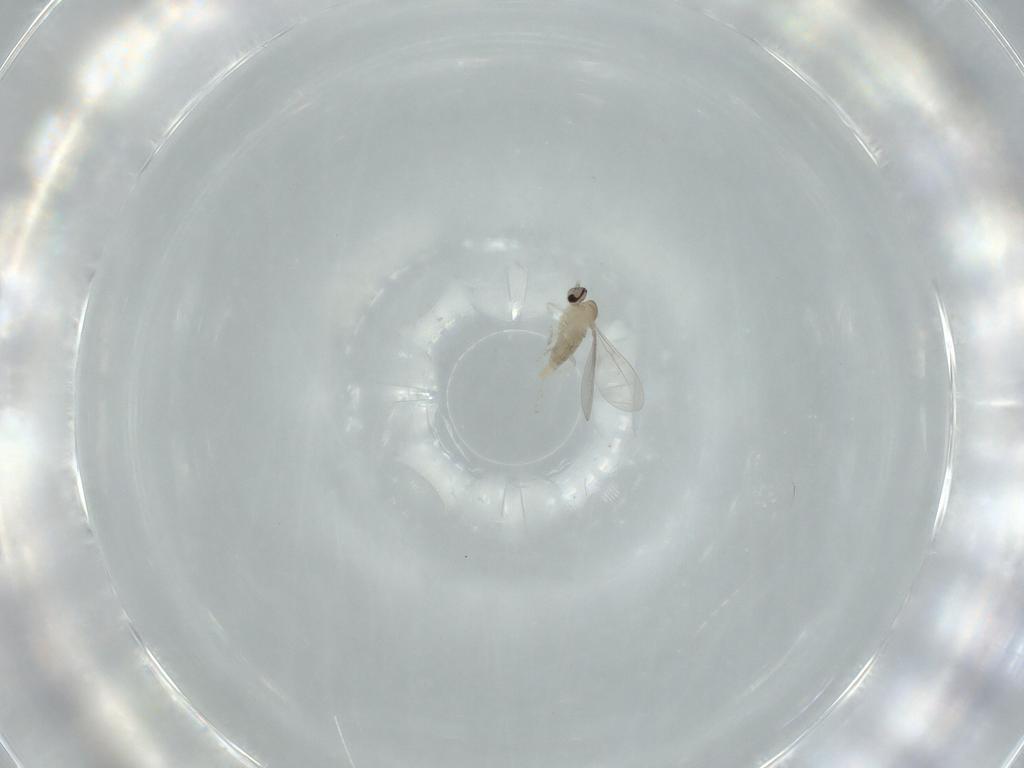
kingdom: Animalia
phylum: Arthropoda
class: Insecta
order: Diptera
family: Cecidomyiidae
